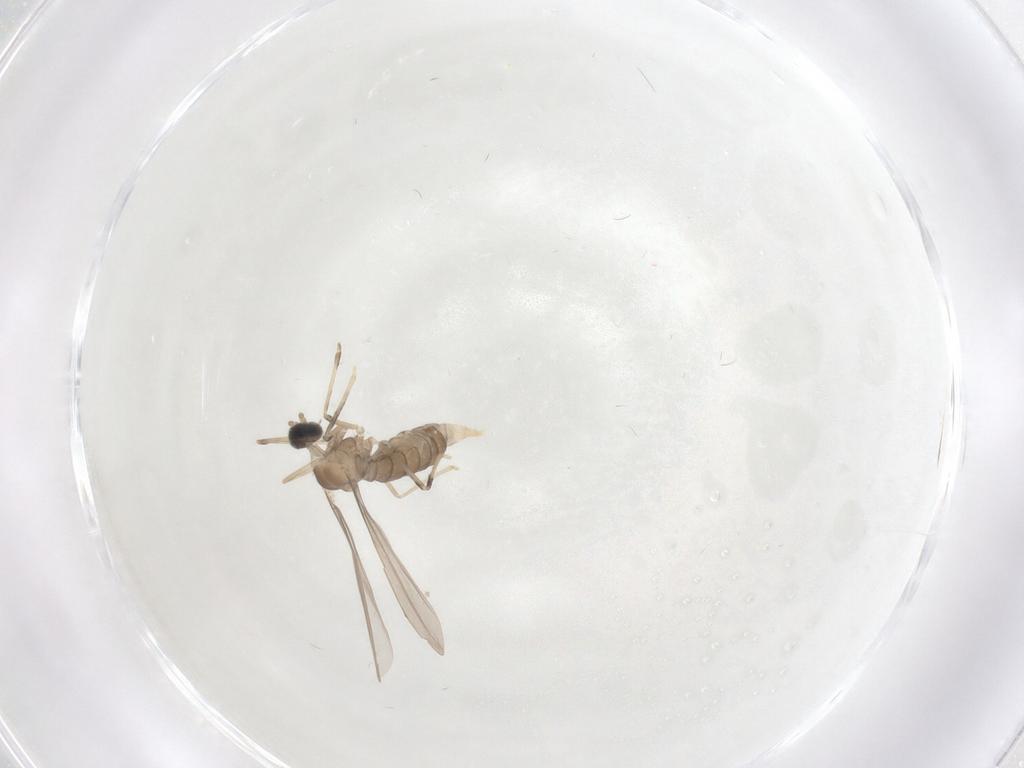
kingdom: Animalia
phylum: Arthropoda
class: Insecta
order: Diptera
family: Cecidomyiidae
